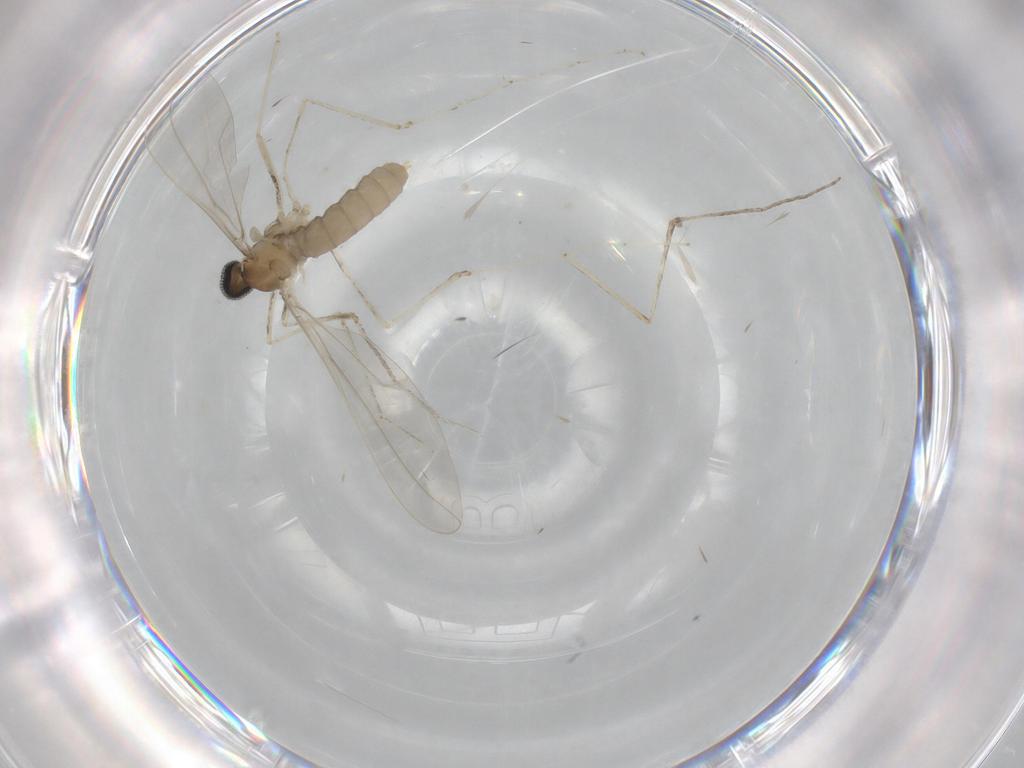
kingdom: Animalia
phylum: Arthropoda
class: Insecta
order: Diptera
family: Cecidomyiidae
